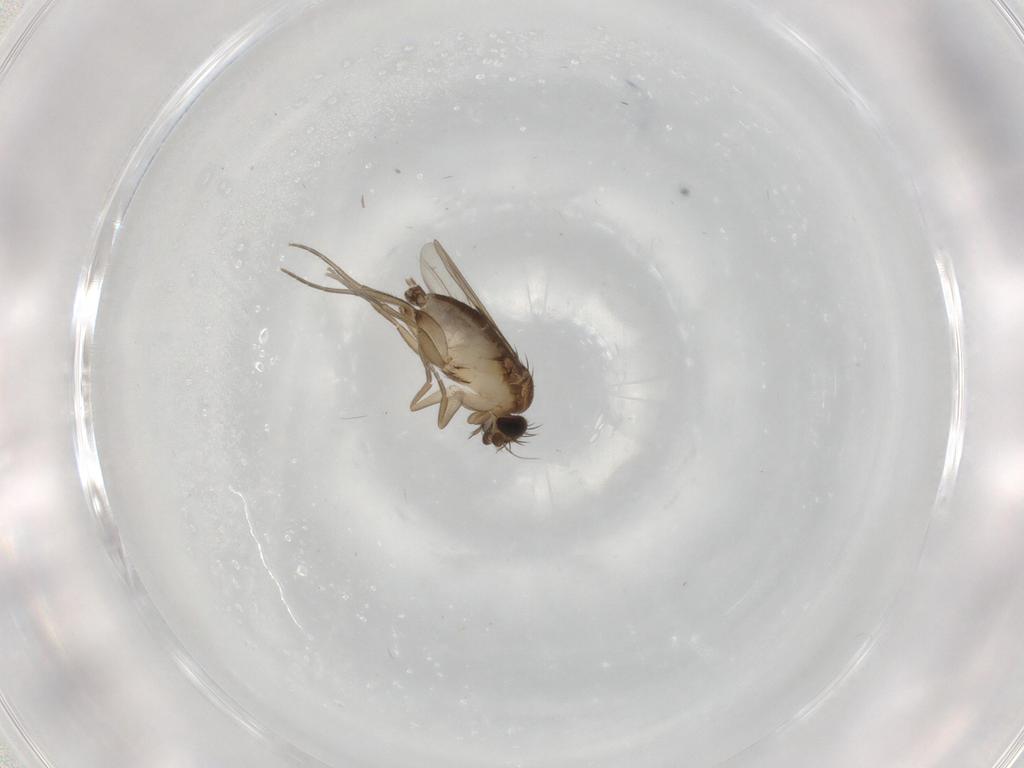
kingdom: Animalia
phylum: Arthropoda
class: Insecta
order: Diptera
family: Phoridae
